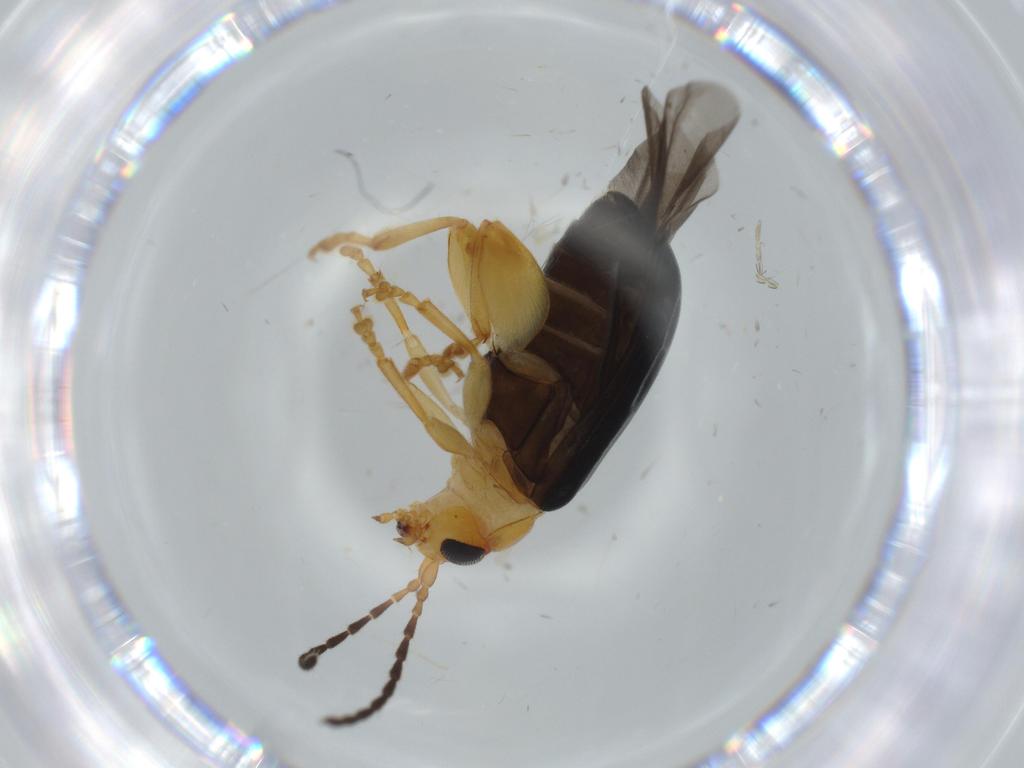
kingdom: Animalia
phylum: Arthropoda
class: Insecta
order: Coleoptera
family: Chrysomelidae
